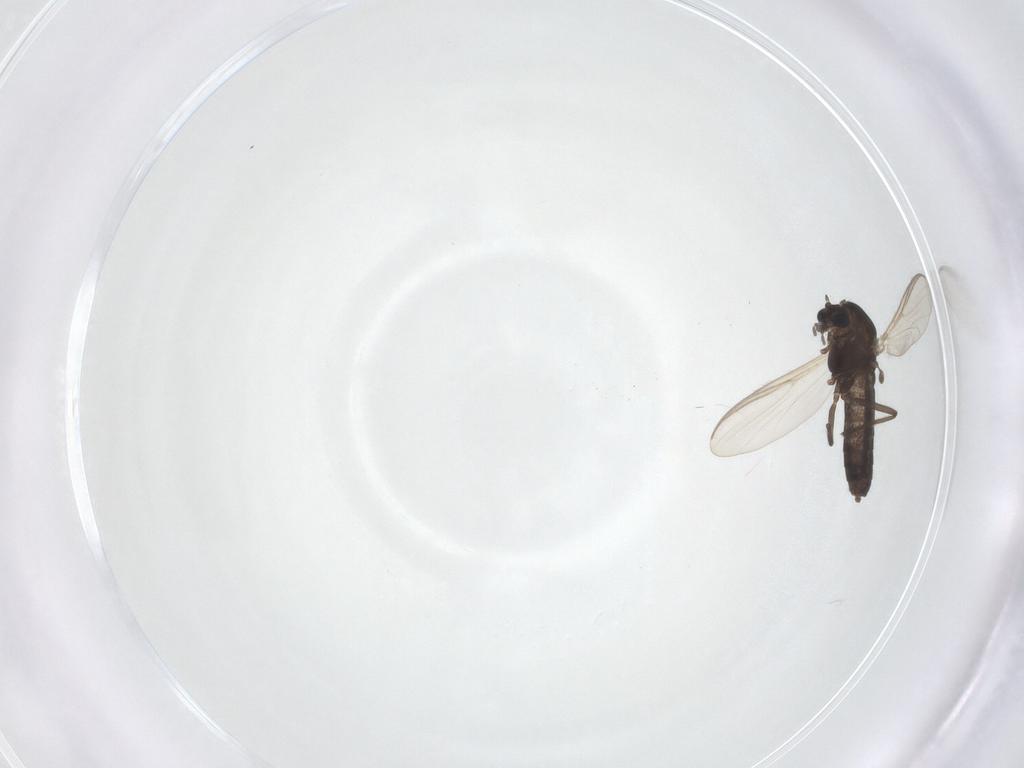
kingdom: Animalia
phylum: Arthropoda
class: Insecta
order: Diptera
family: Chironomidae
